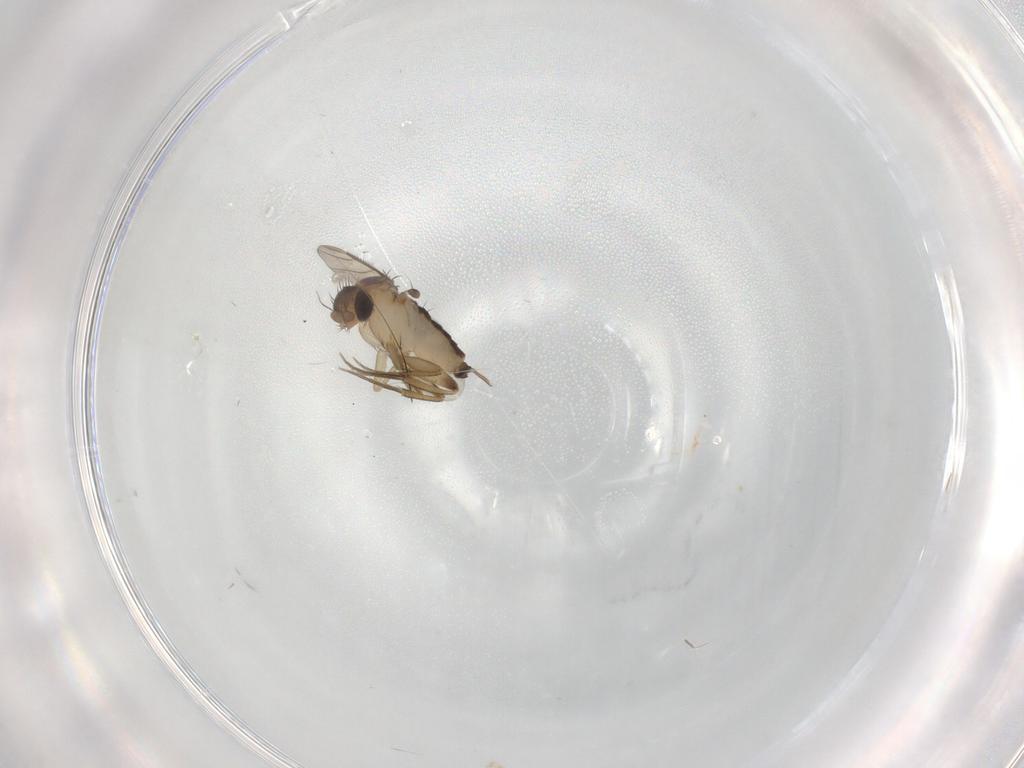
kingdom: Animalia
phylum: Arthropoda
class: Insecta
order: Diptera
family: Phoridae
